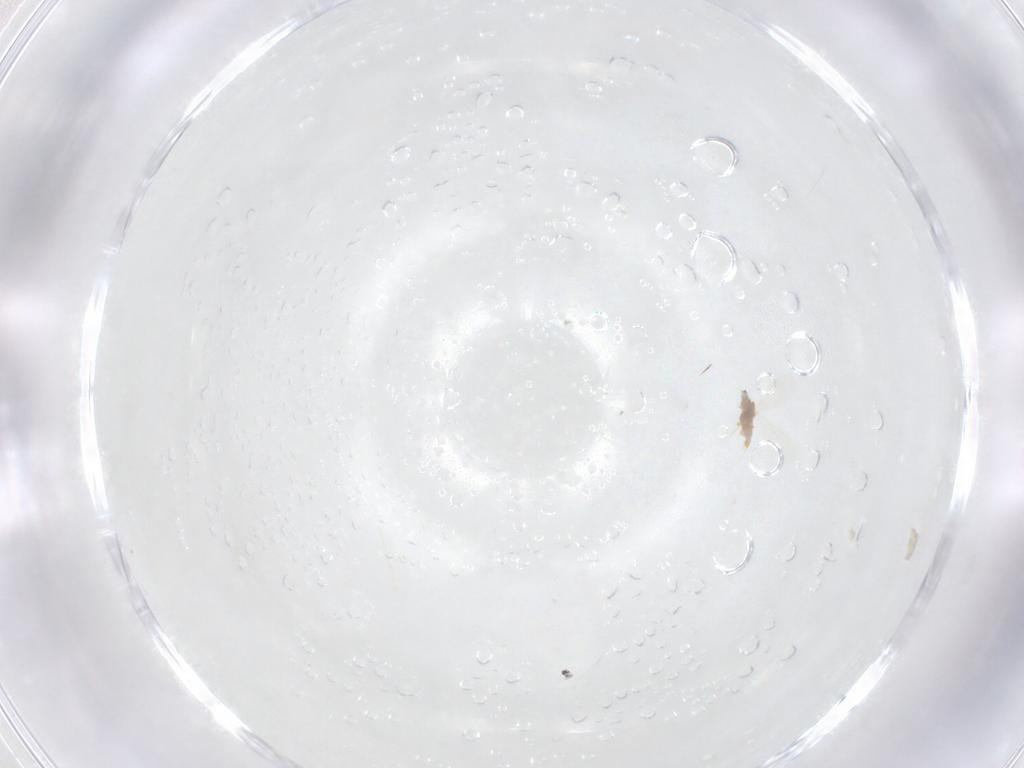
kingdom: Animalia
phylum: Arthropoda
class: Insecta
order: Hemiptera
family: Diaspididae
